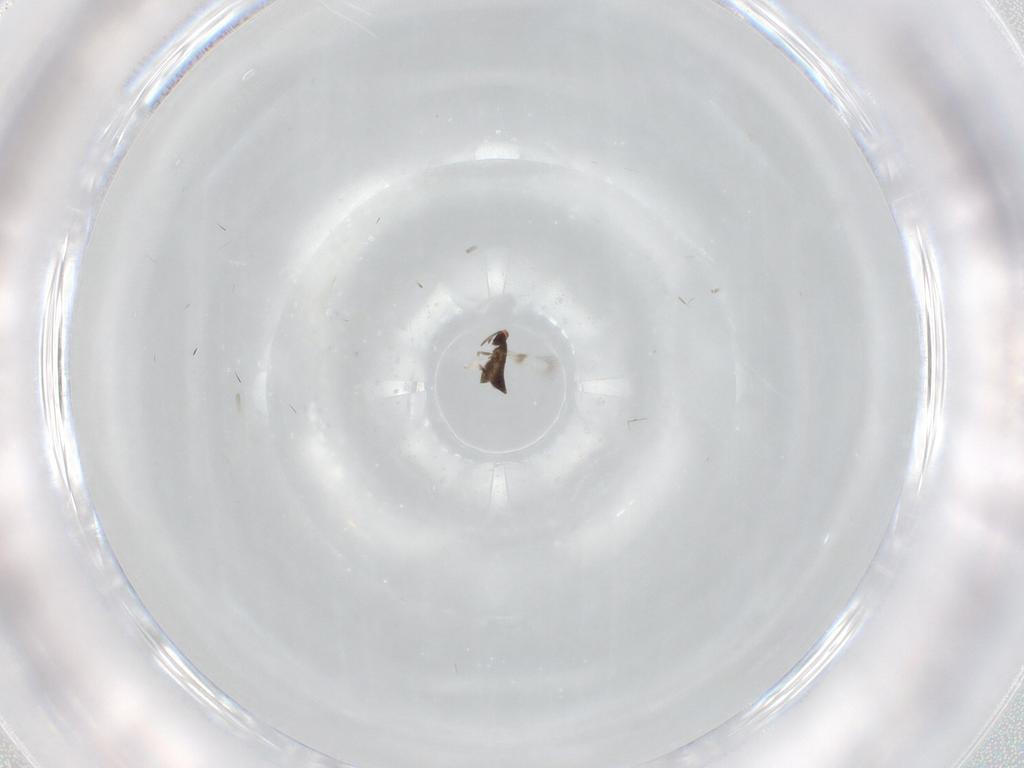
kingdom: Animalia
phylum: Arthropoda
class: Insecta
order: Hymenoptera
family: Signiphoridae
